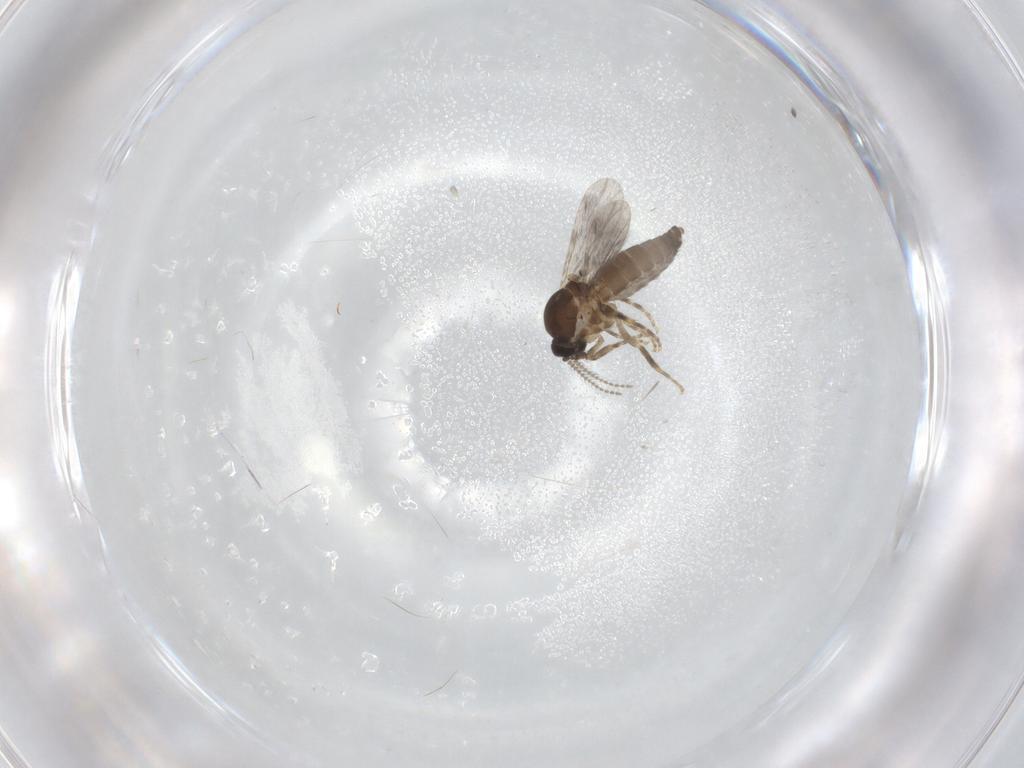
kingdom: Animalia
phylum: Arthropoda
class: Insecta
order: Diptera
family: Ceratopogonidae
